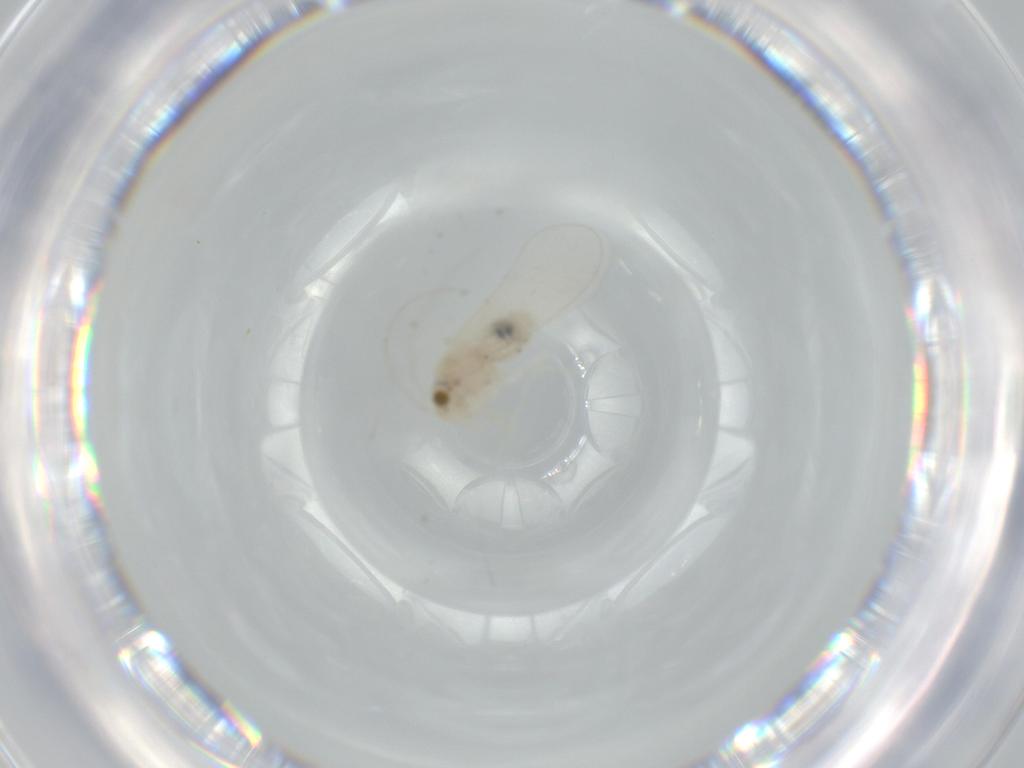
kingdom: Animalia
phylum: Arthropoda
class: Insecta
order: Psocodea
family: Lachesillidae
